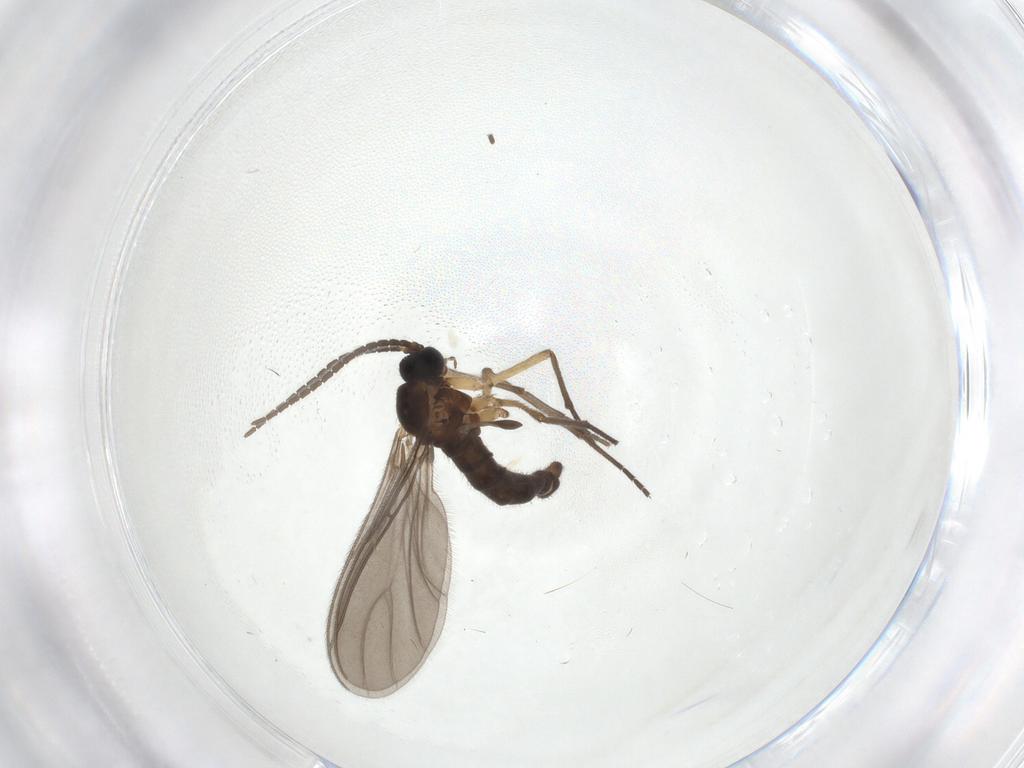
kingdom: Animalia
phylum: Arthropoda
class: Insecta
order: Diptera
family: Sciaridae
